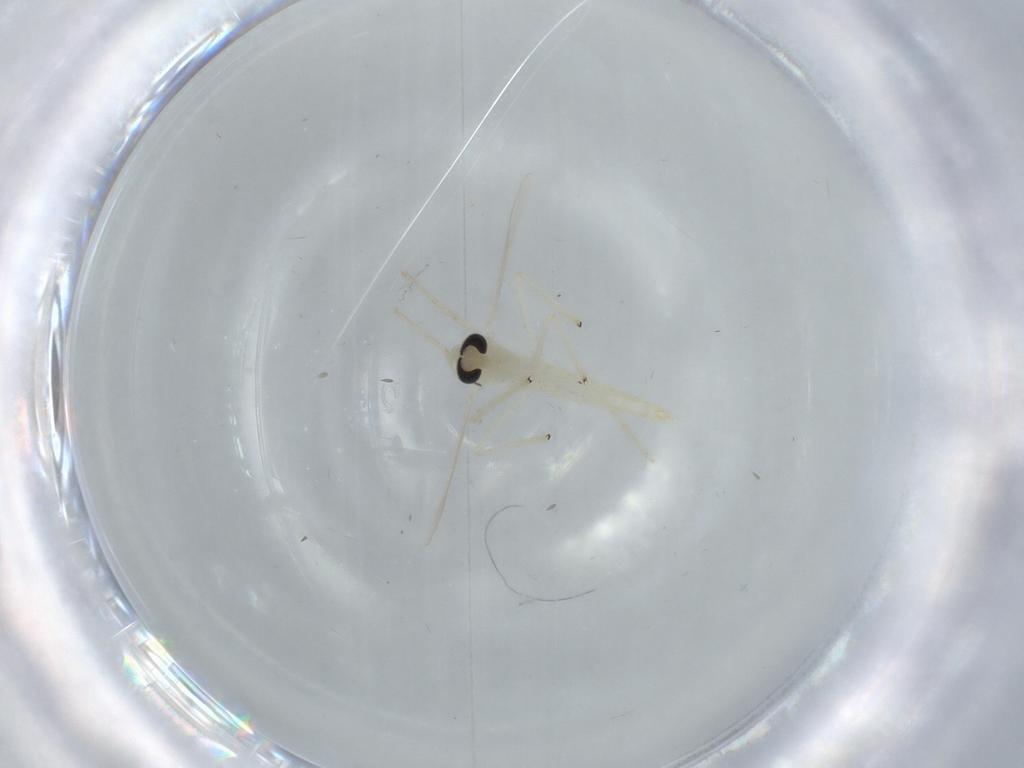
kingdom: Animalia
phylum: Arthropoda
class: Insecta
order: Diptera
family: Chironomidae
